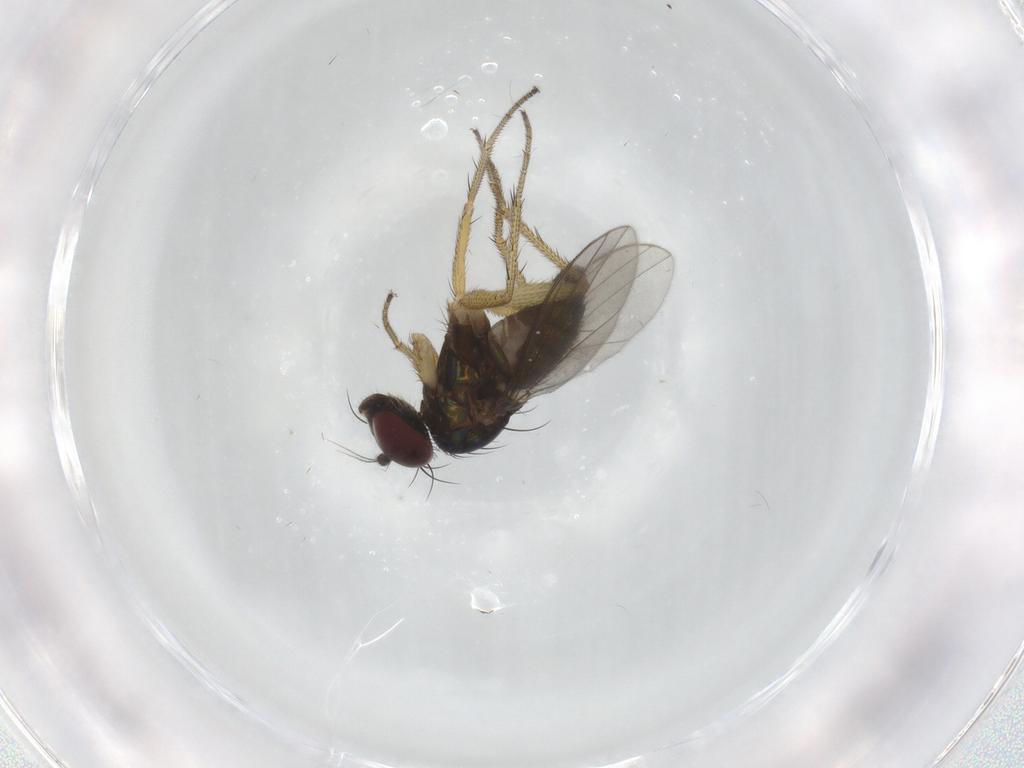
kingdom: Animalia
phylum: Arthropoda
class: Insecta
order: Diptera
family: Dolichopodidae
